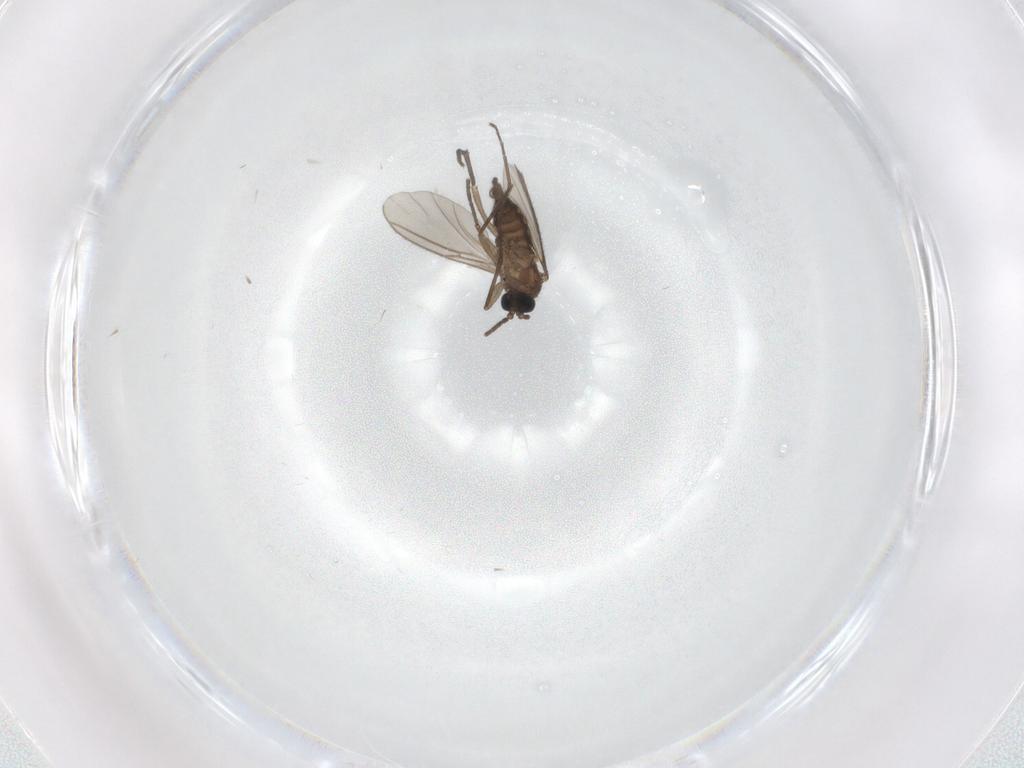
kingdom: Animalia
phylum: Arthropoda
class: Insecta
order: Diptera
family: Sciaridae
